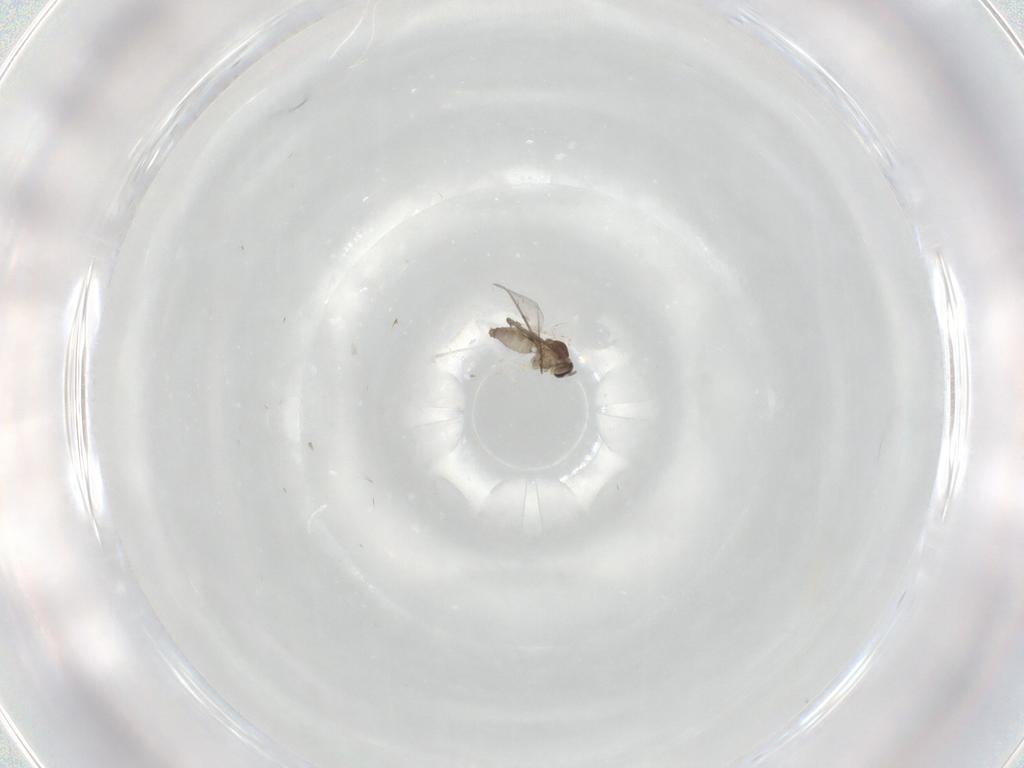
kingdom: Animalia
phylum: Arthropoda
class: Insecta
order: Diptera
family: Cecidomyiidae
